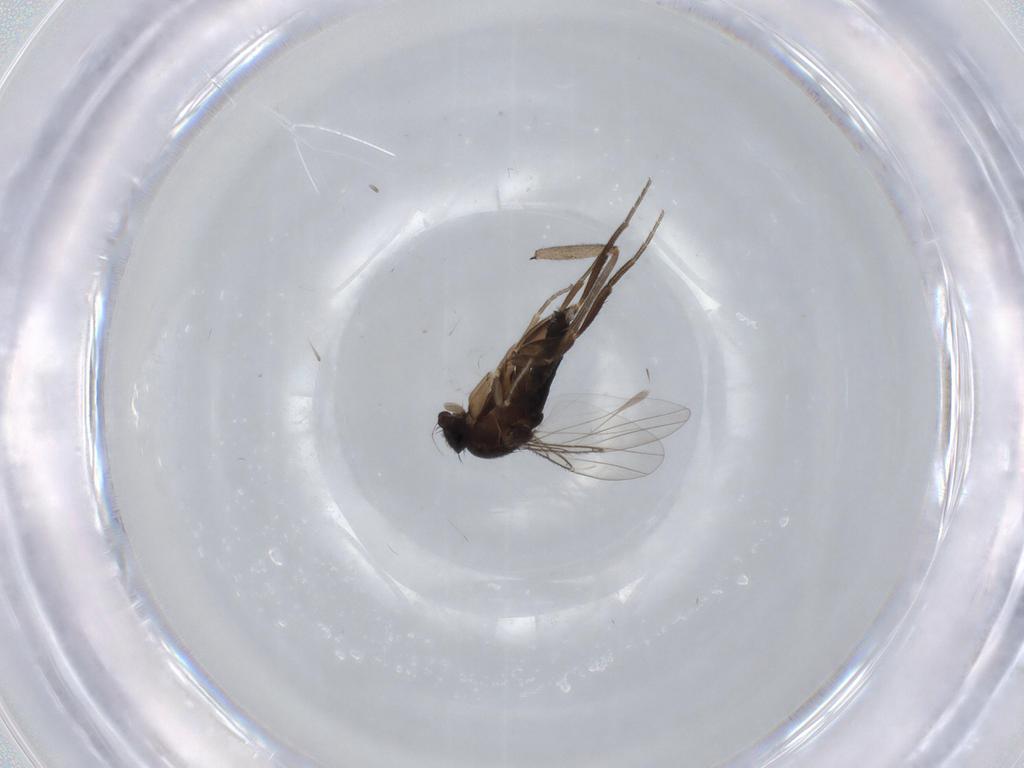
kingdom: Animalia
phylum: Arthropoda
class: Insecta
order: Diptera
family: Phoridae
